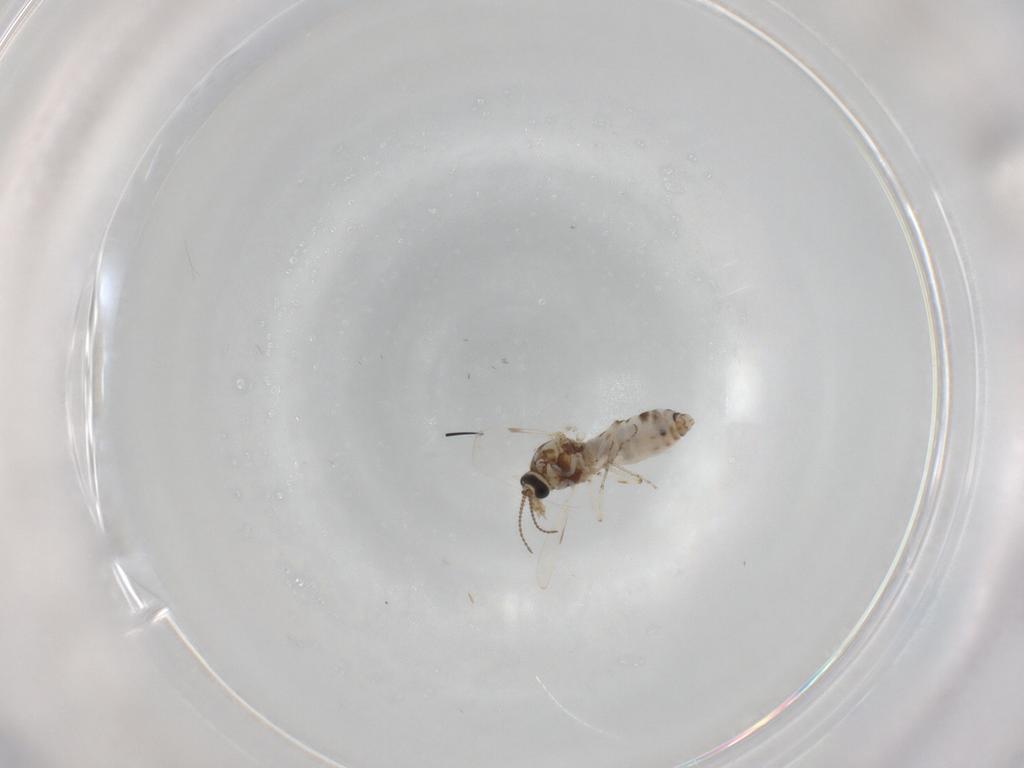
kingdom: Animalia
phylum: Arthropoda
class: Insecta
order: Diptera
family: Ceratopogonidae
